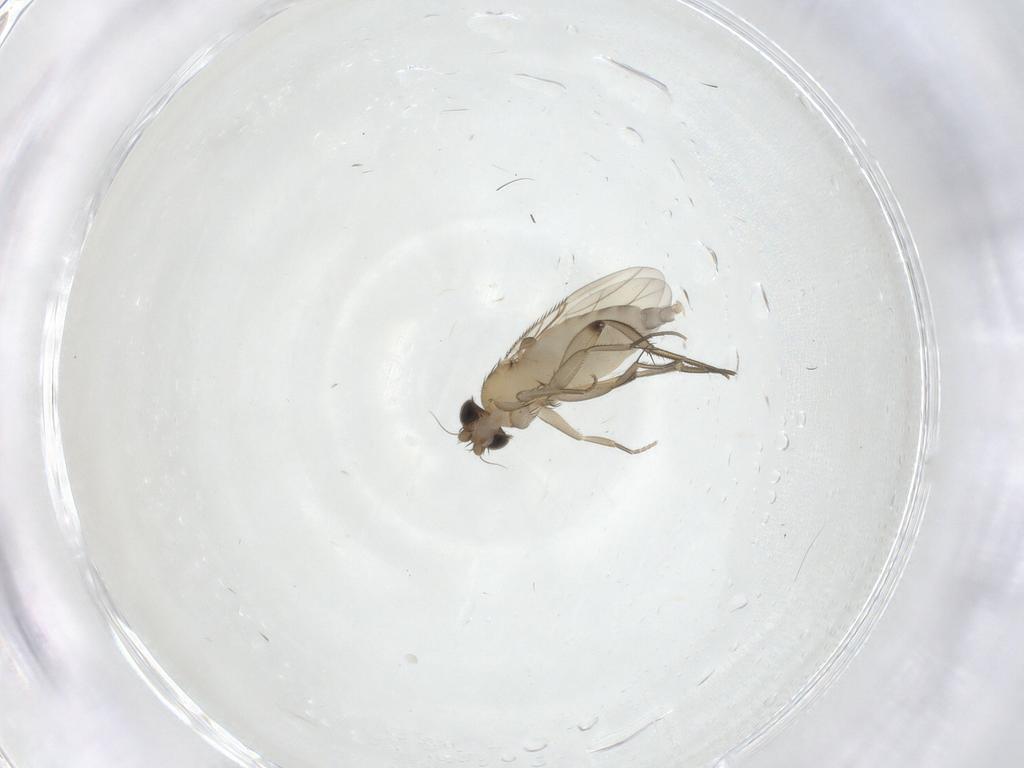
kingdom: Animalia
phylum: Arthropoda
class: Insecta
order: Diptera
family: Phoridae
